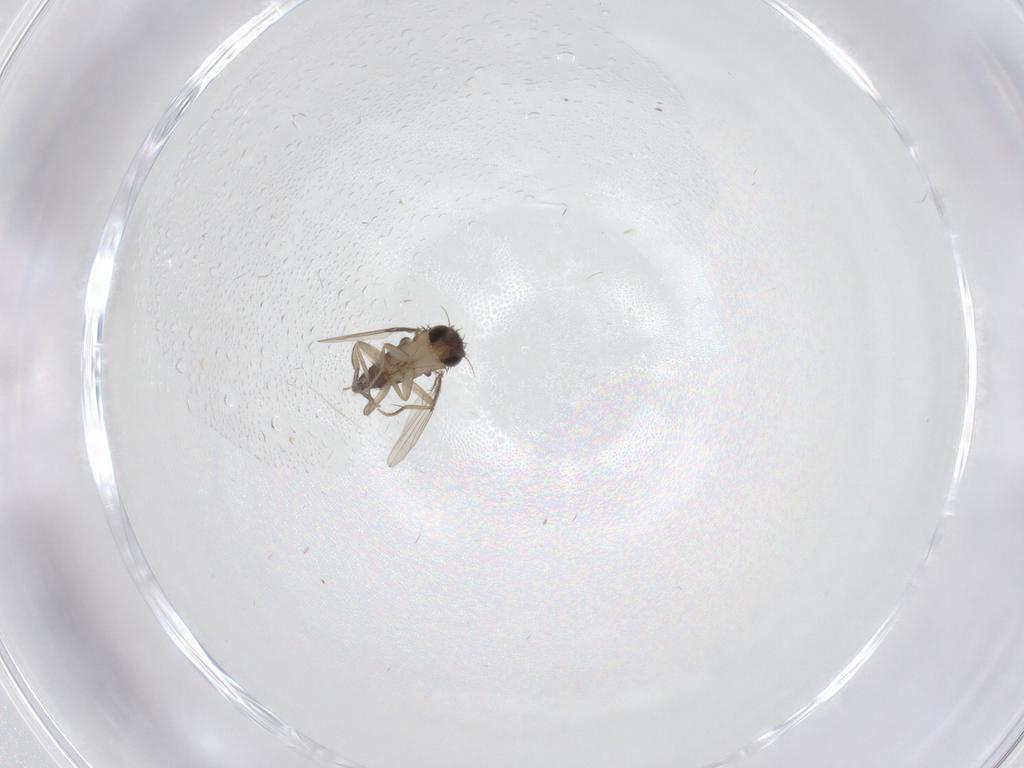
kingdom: Animalia
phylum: Arthropoda
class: Insecta
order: Diptera
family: Phoridae
